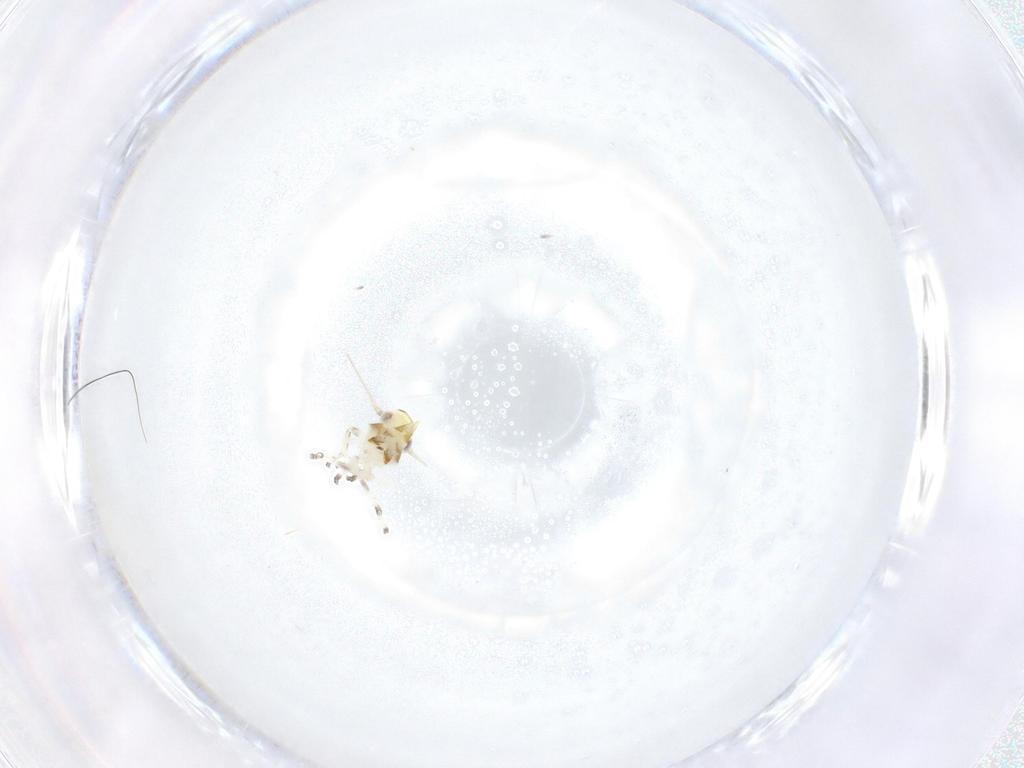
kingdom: Animalia
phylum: Arthropoda
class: Insecta
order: Hemiptera
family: Cicadellidae
